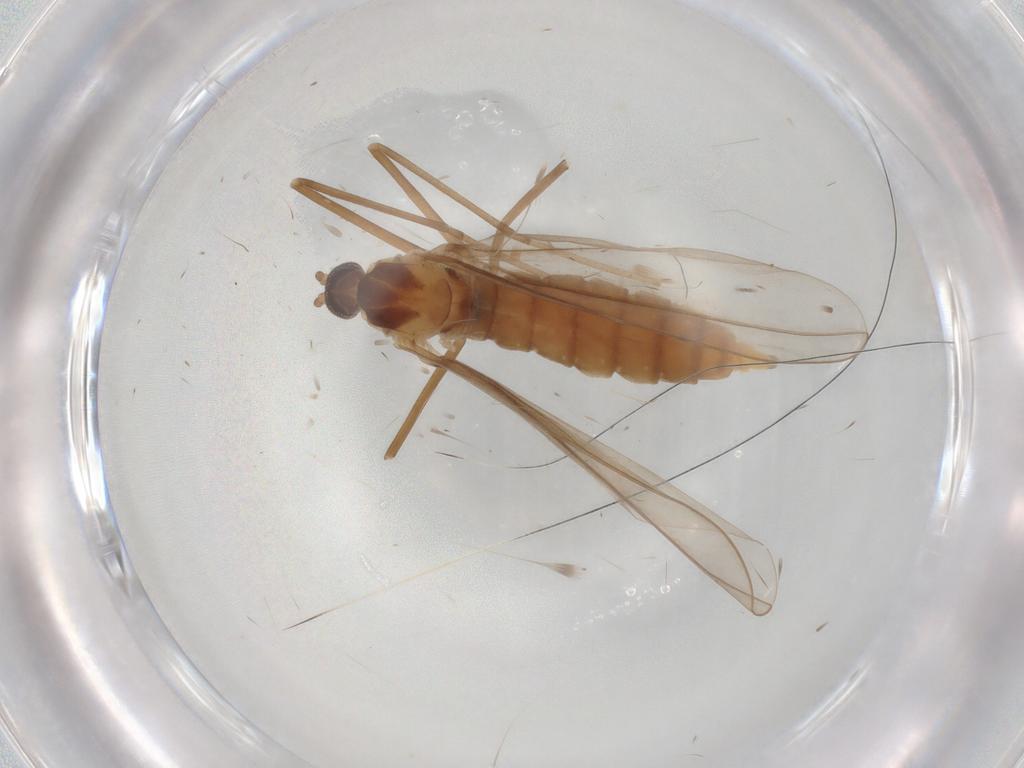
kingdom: Animalia
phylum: Arthropoda
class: Insecta
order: Diptera
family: Cecidomyiidae
